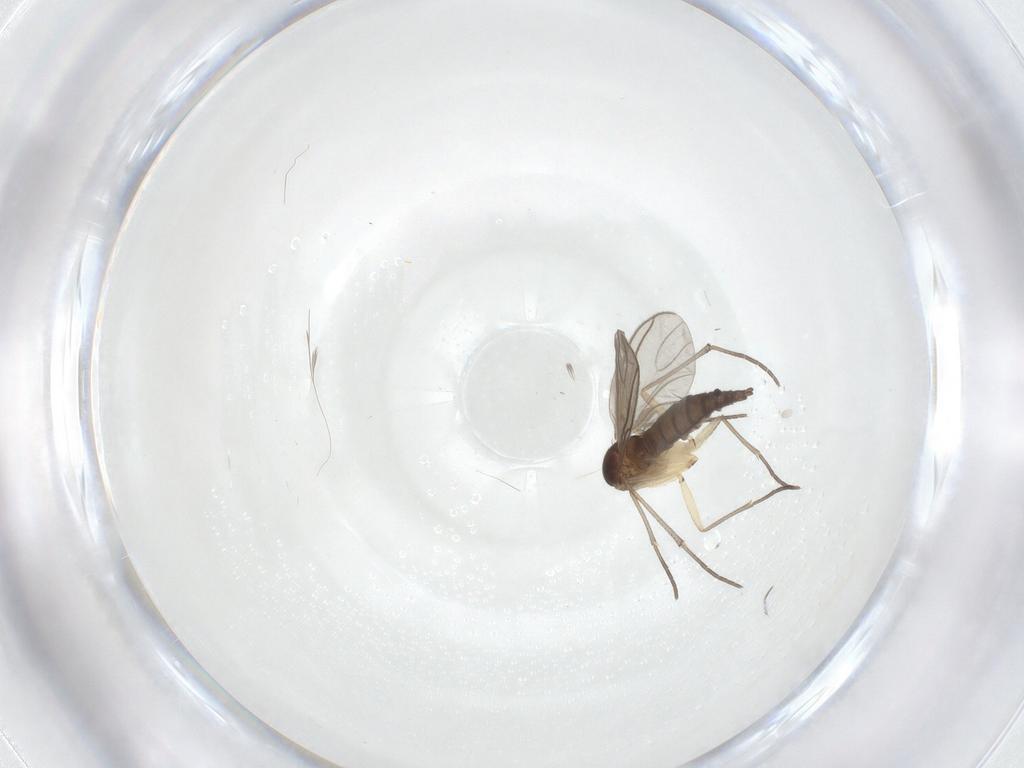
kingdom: Animalia
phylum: Arthropoda
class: Insecta
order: Diptera
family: Sciaridae
